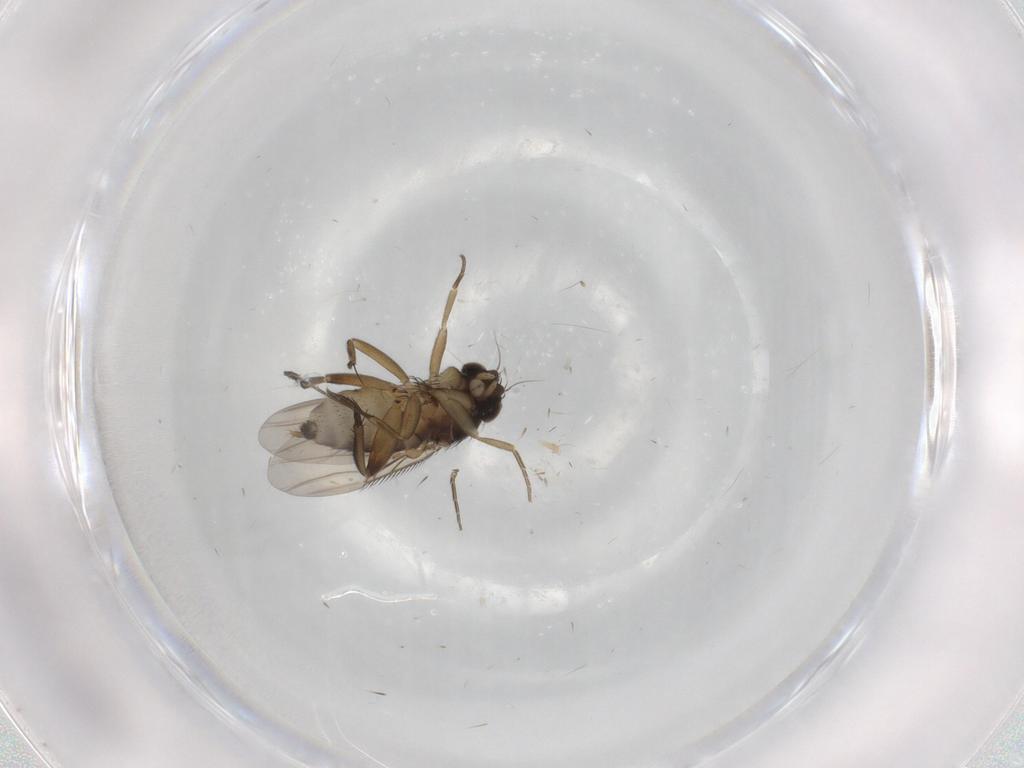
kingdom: Animalia
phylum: Arthropoda
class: Insecta
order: Diptera
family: Phoridae
